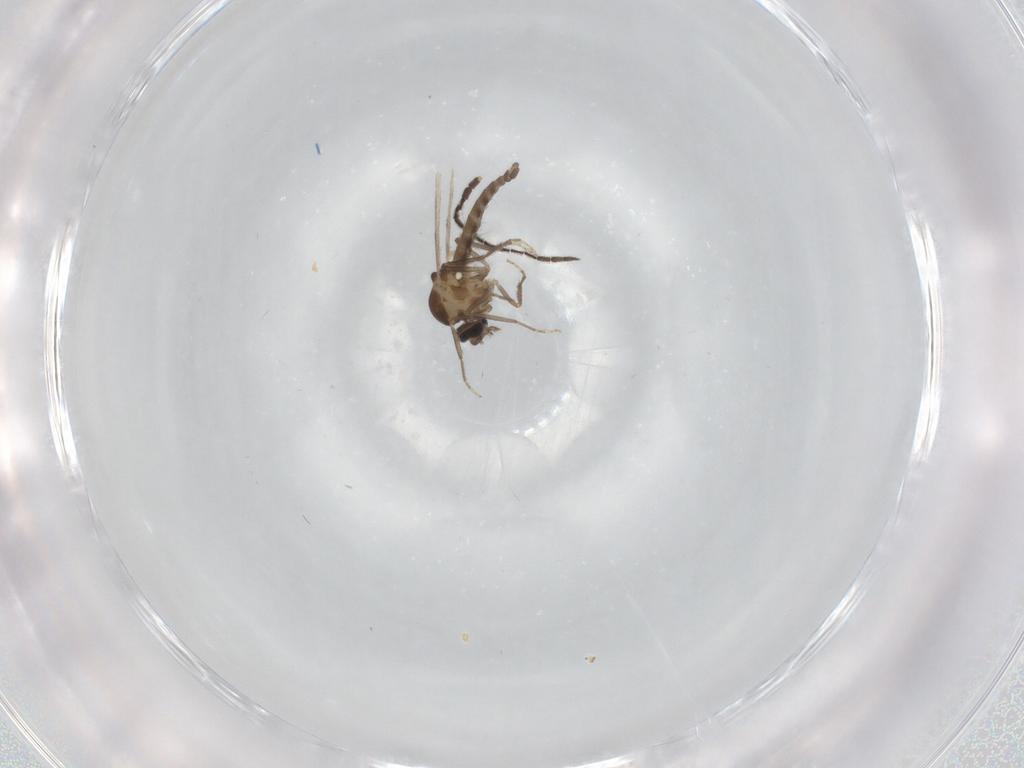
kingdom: Animalia
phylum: Arthropoda
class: Insecta
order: Diptera
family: Ceratopogonidae
